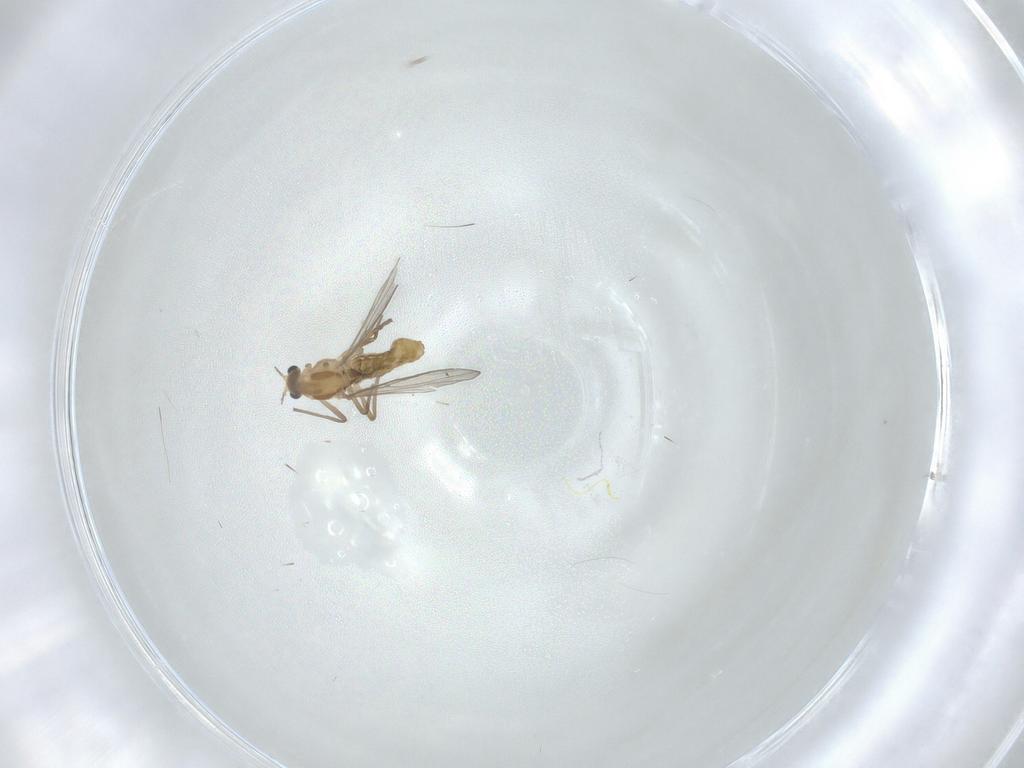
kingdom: Animalia
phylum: Arthropoda
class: Insecta
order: Diptera
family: Chironomidae
